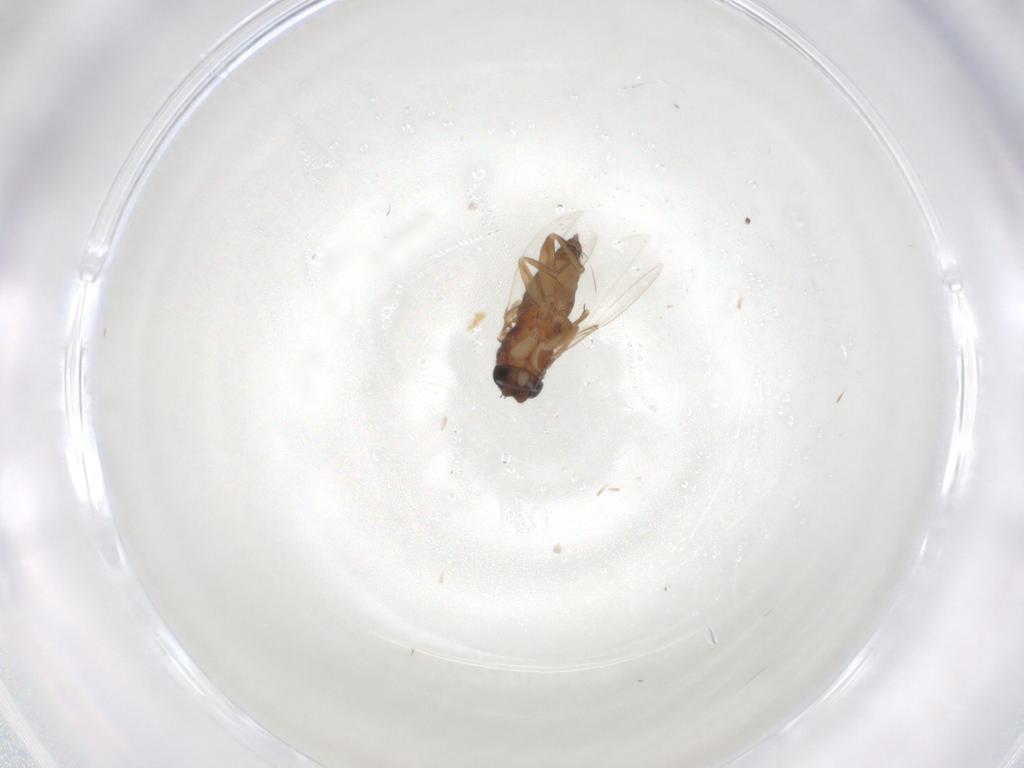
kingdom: Animalia
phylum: Arthropoda
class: Insecta
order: Diptera
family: Phoridae
